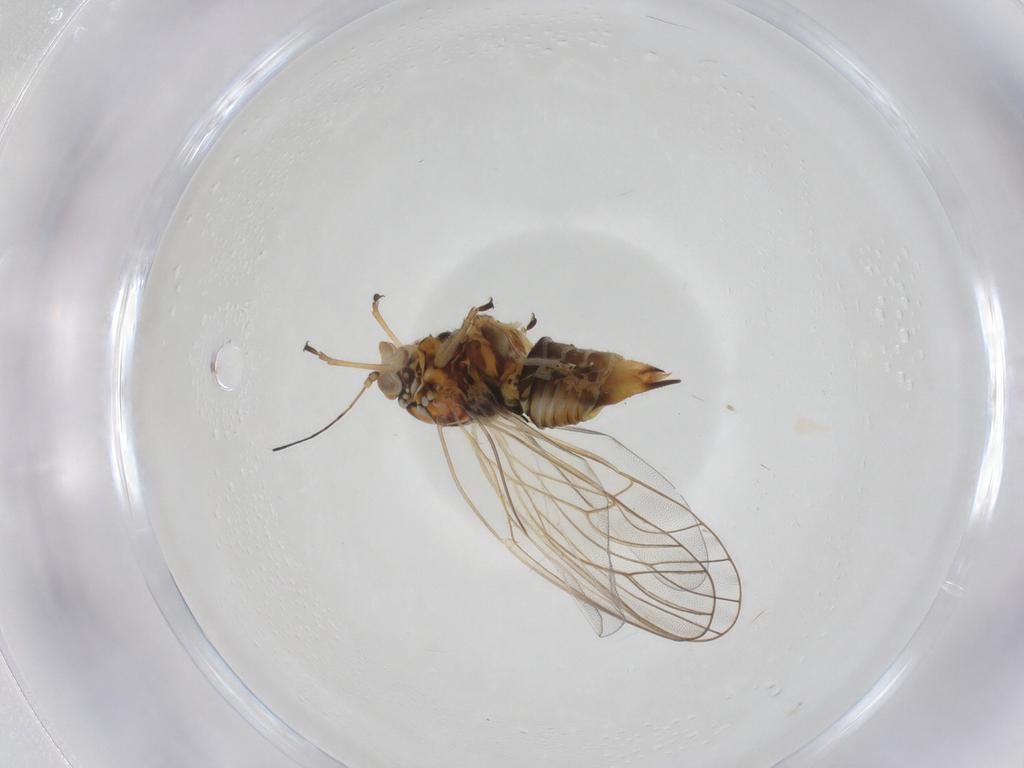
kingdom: Animalia
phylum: Arthropoda
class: Insecta
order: Hemiptera
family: Psyllidae
